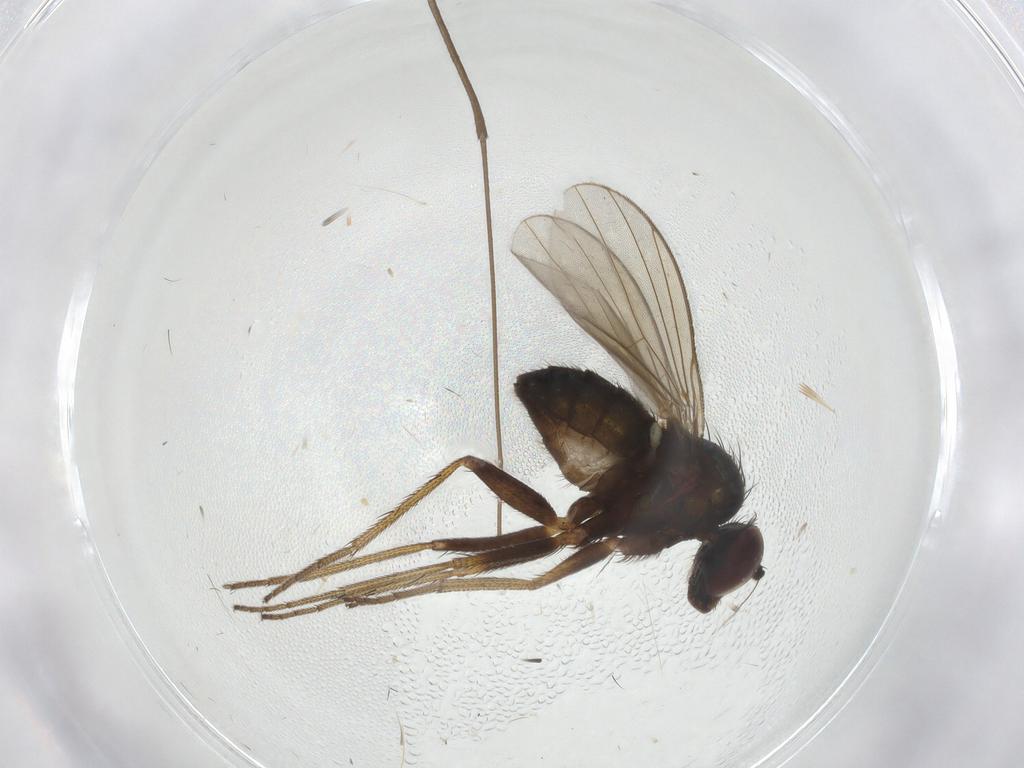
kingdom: Animalia
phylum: Arthropoda
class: Insecta
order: Diptera
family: Limoniidae
